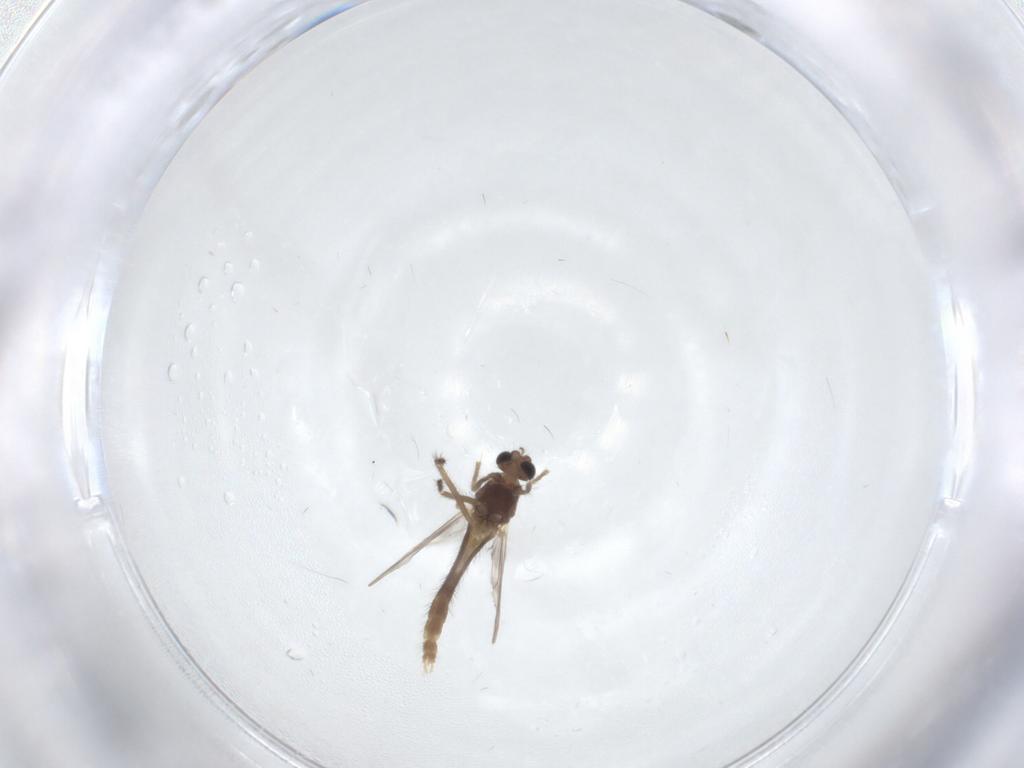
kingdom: Animalia
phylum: Arthropoda
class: Insecta
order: Diptera
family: Chironomidae
